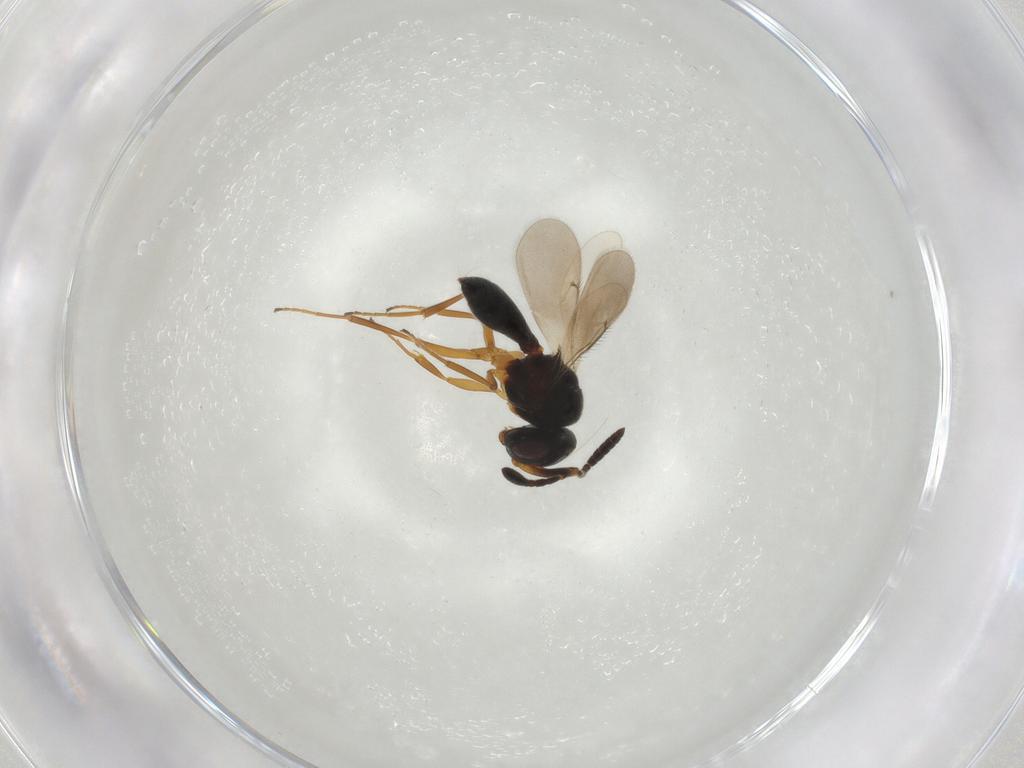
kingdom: Animalia
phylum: Arthropoda
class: Insecta
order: Hymenoptera
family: Scelionidae
